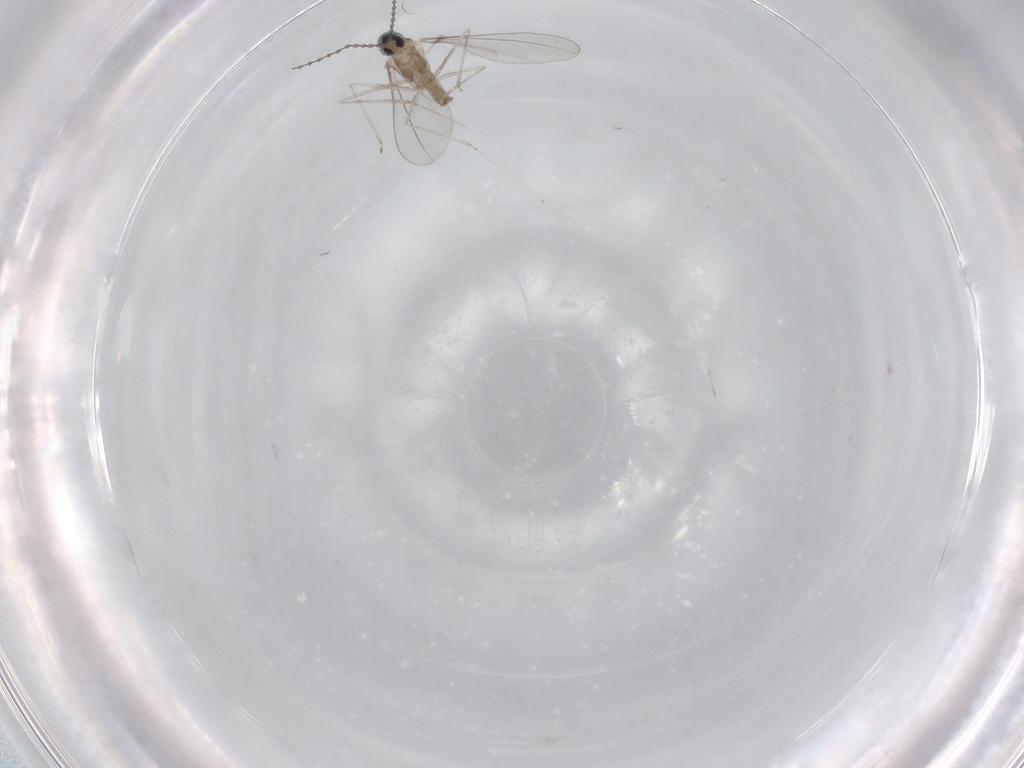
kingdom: Animalia
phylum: Arthropoda
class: Insecta
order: Diptera
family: Cecidomyiidae
